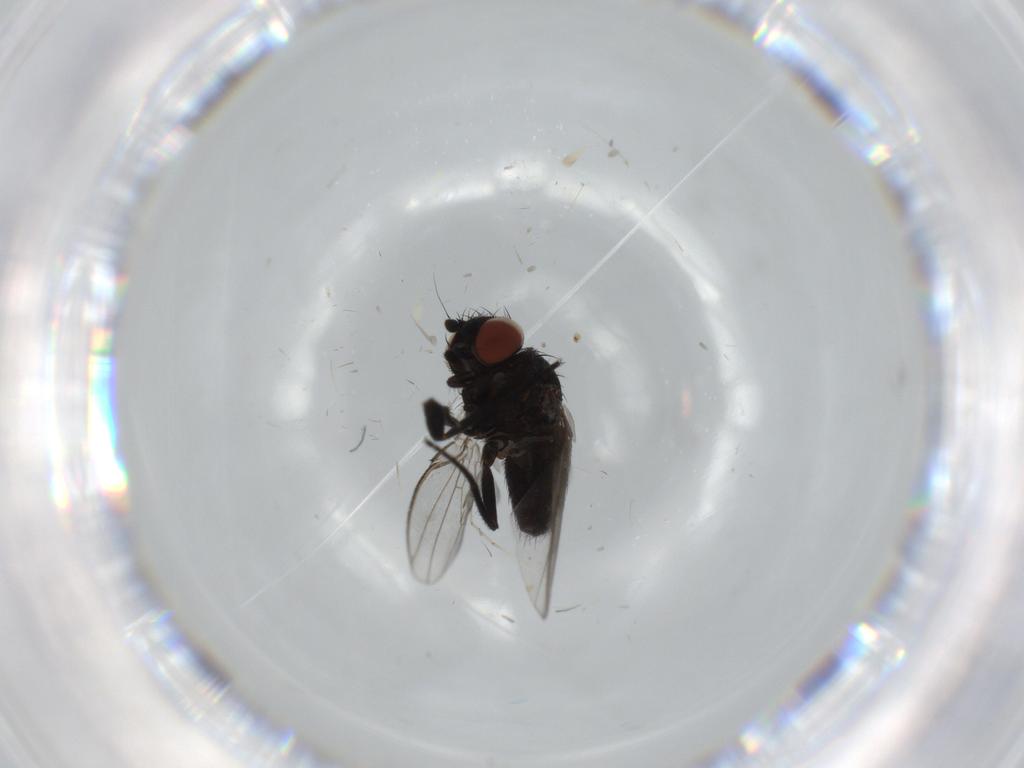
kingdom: Animalia
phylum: Arthropoda
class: Insecta
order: Diptera
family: Milichiidae
